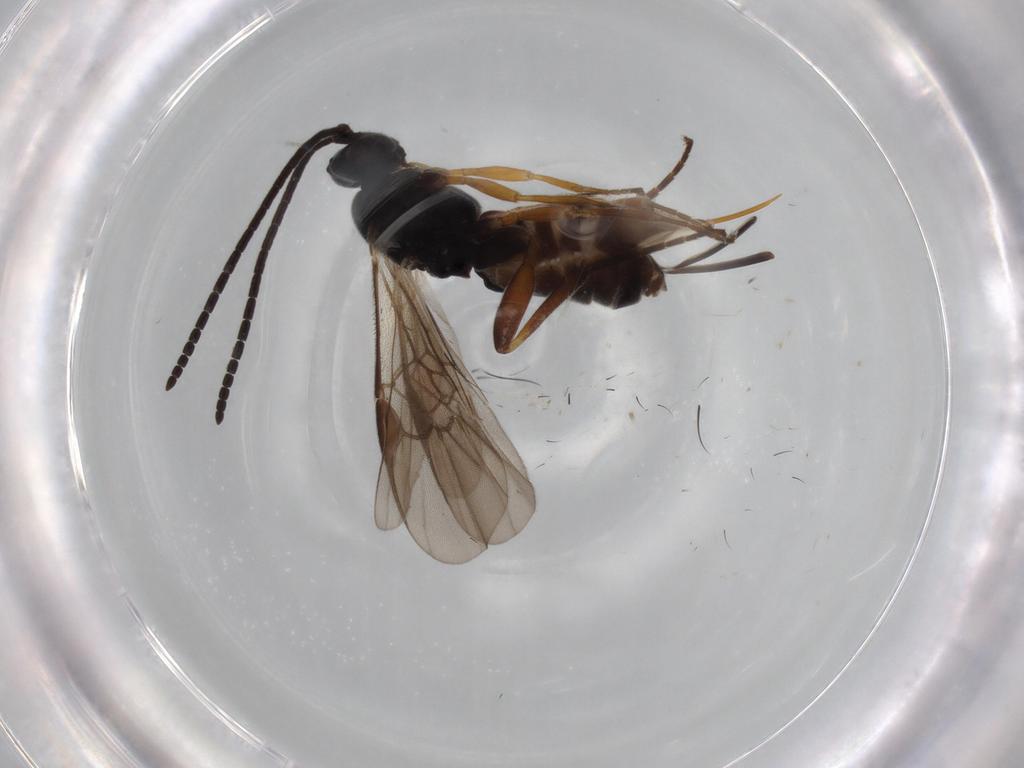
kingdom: Animalia
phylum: Arthropoda
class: Insecta
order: Hymenoptera
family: Braconidae
